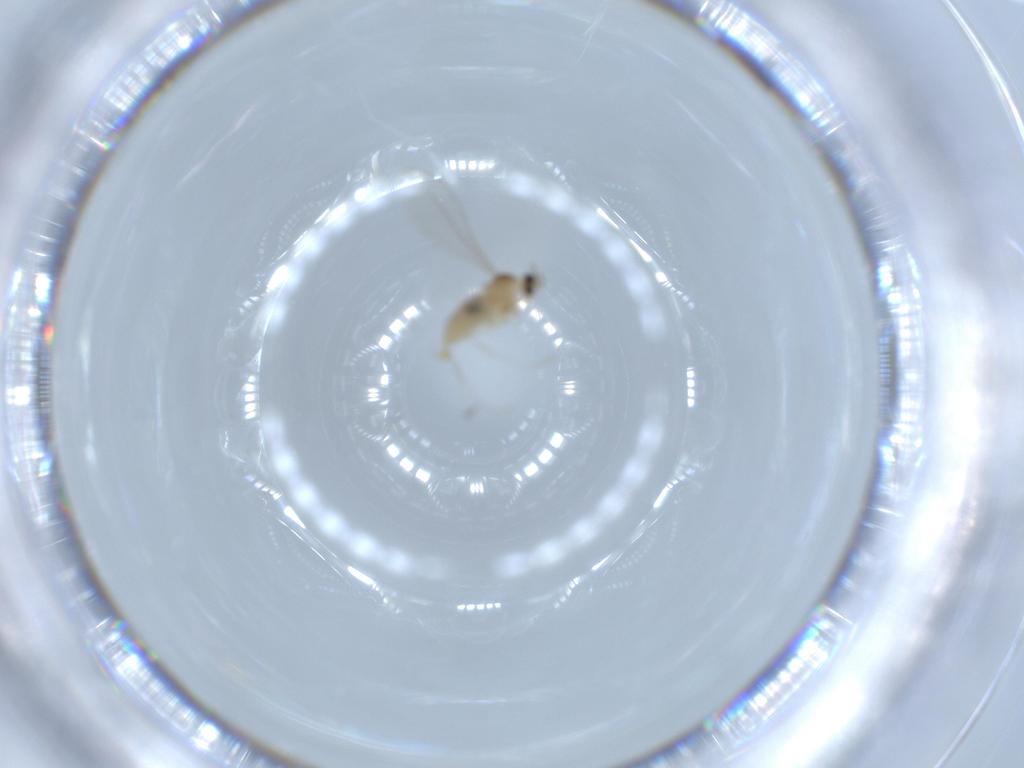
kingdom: Animalia
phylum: Arthropoda
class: Insecta
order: Diptera
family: Cecidomyiidae
